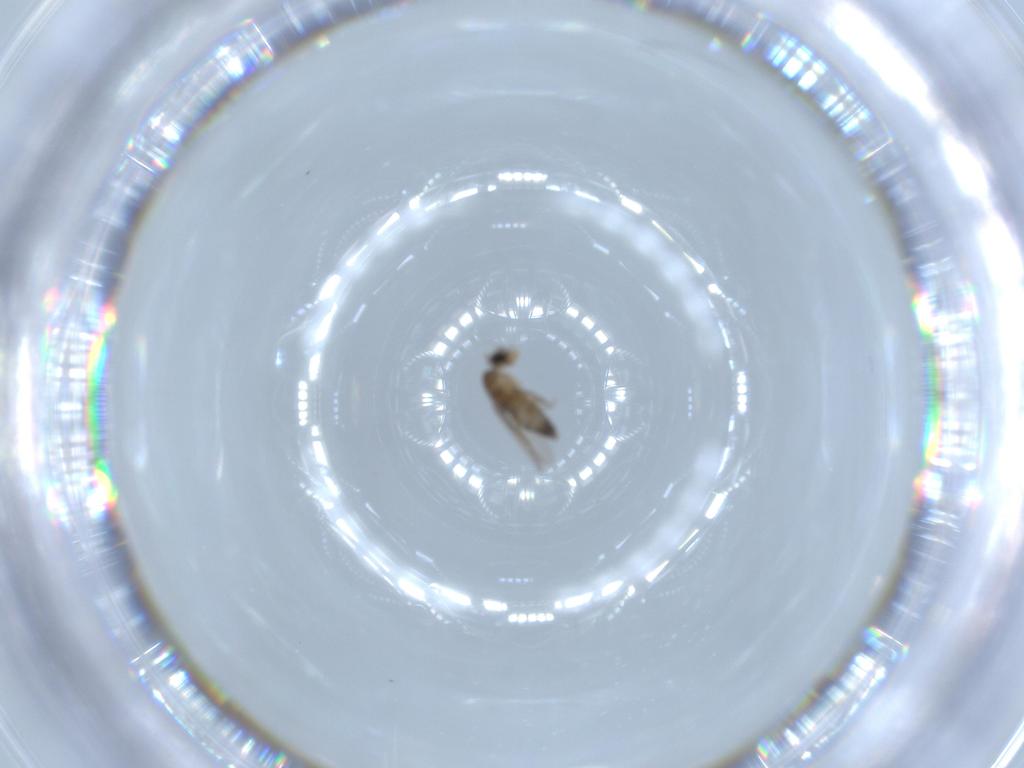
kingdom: Animalia
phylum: Arthropoda
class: Insecta
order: Diptera
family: Phoridae
